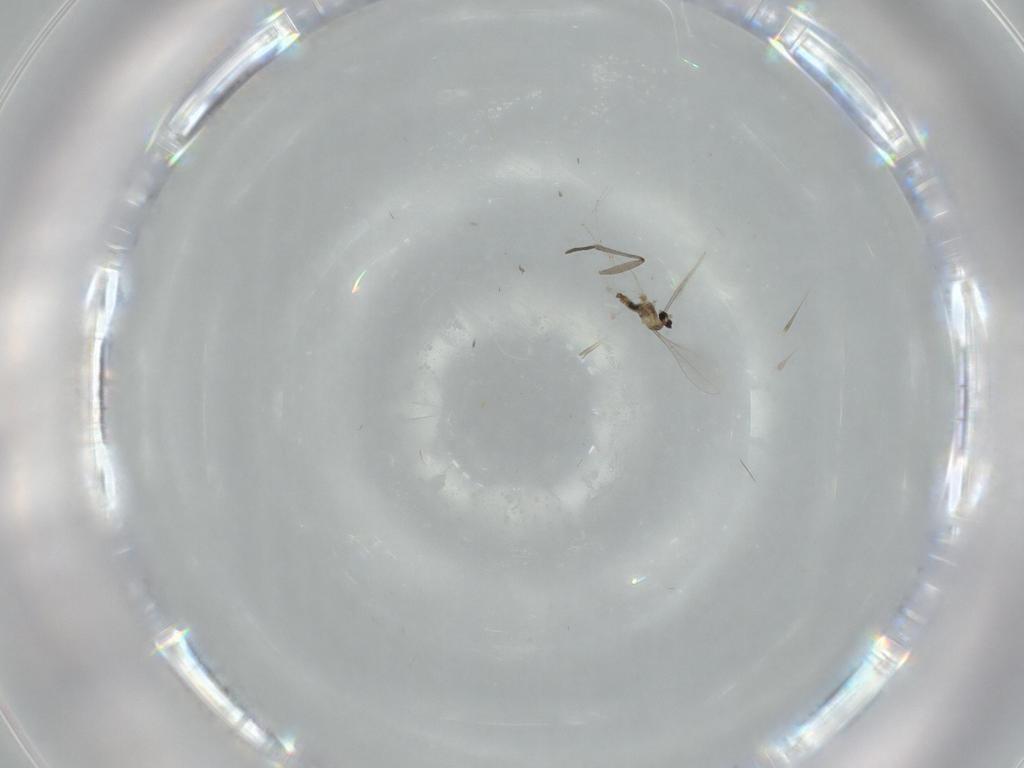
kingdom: Animalia
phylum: Arthropoda
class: Insecta
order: Diptera
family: Cecidomyiidae
